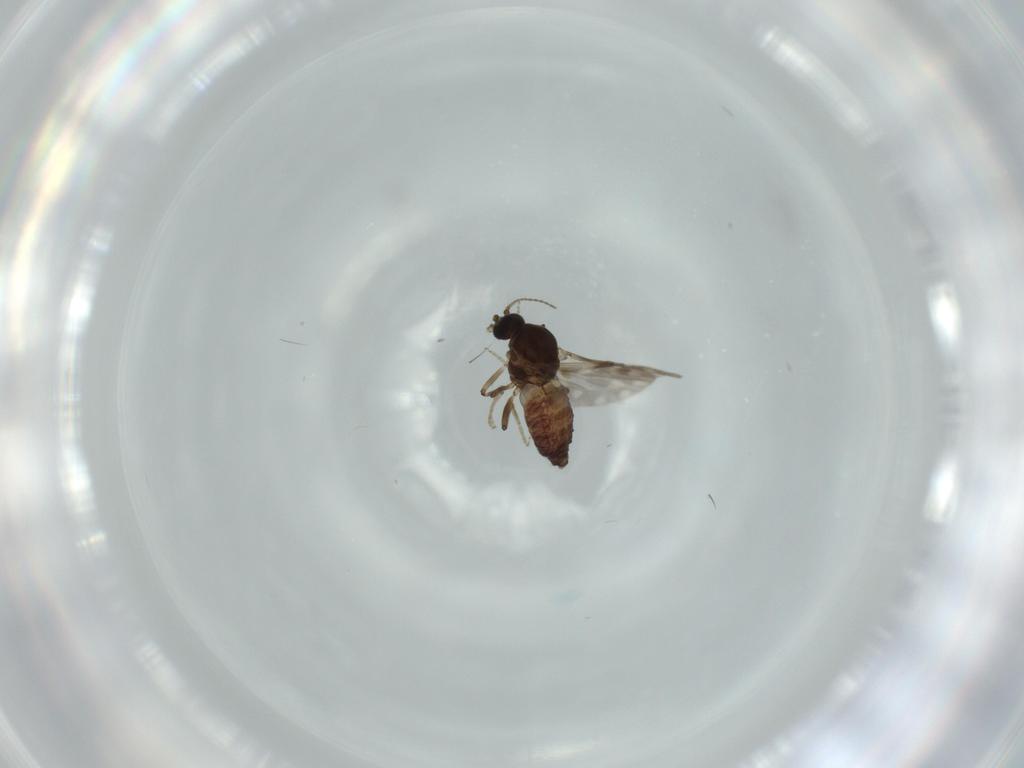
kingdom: Animalia
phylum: Arthropoda
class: Insecta
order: Diptera
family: Ceratopogonidae
